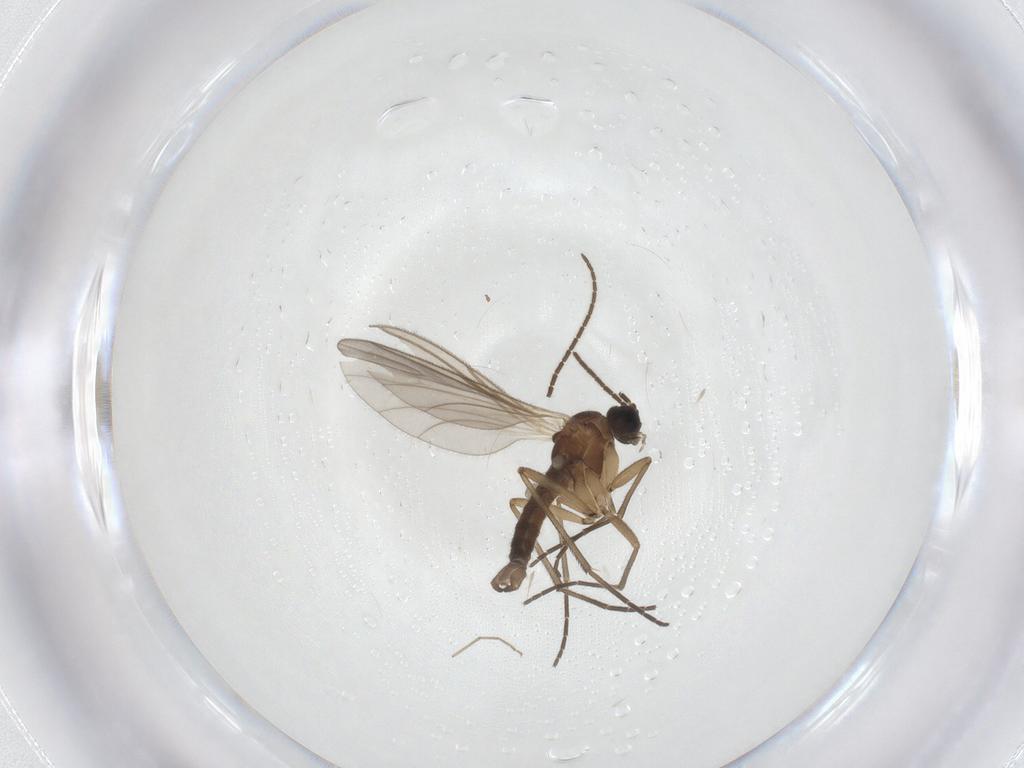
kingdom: Animalia
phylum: Arthropoda
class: Insecta
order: Diptera
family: Sciaridae
